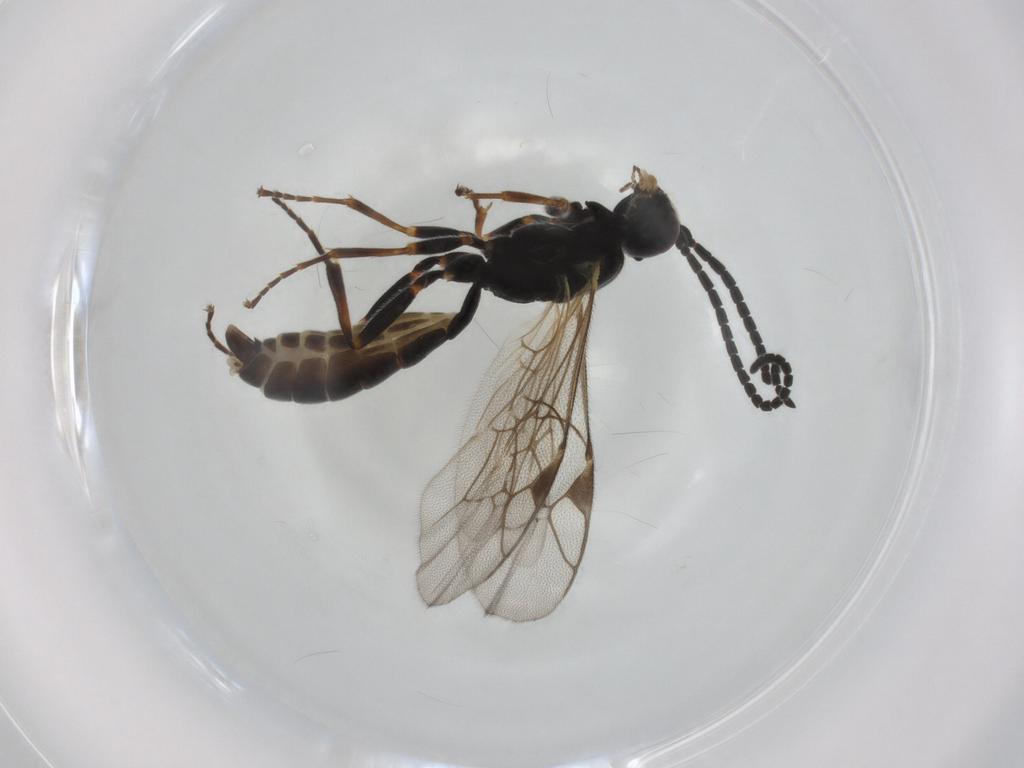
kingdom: Animalia
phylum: Arthropoda
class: Insecta
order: Hymenoptera
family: Ichneumonidae
